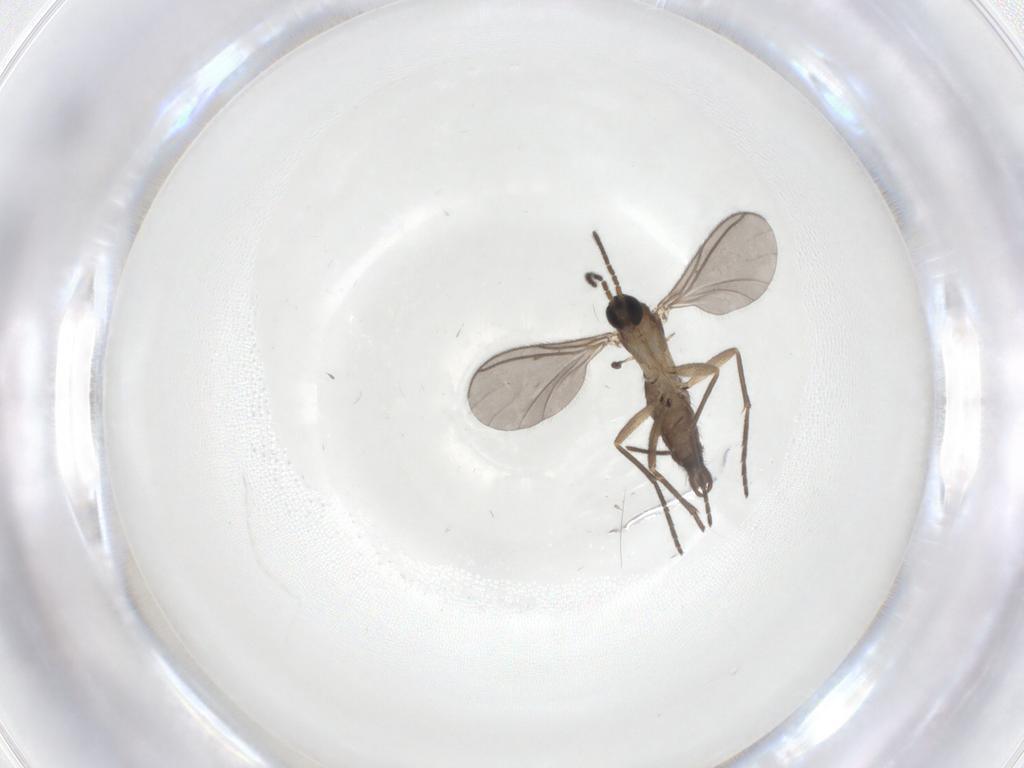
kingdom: Animalia
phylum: Arthropoda
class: Insecta
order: Diptera
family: Sciaridae
